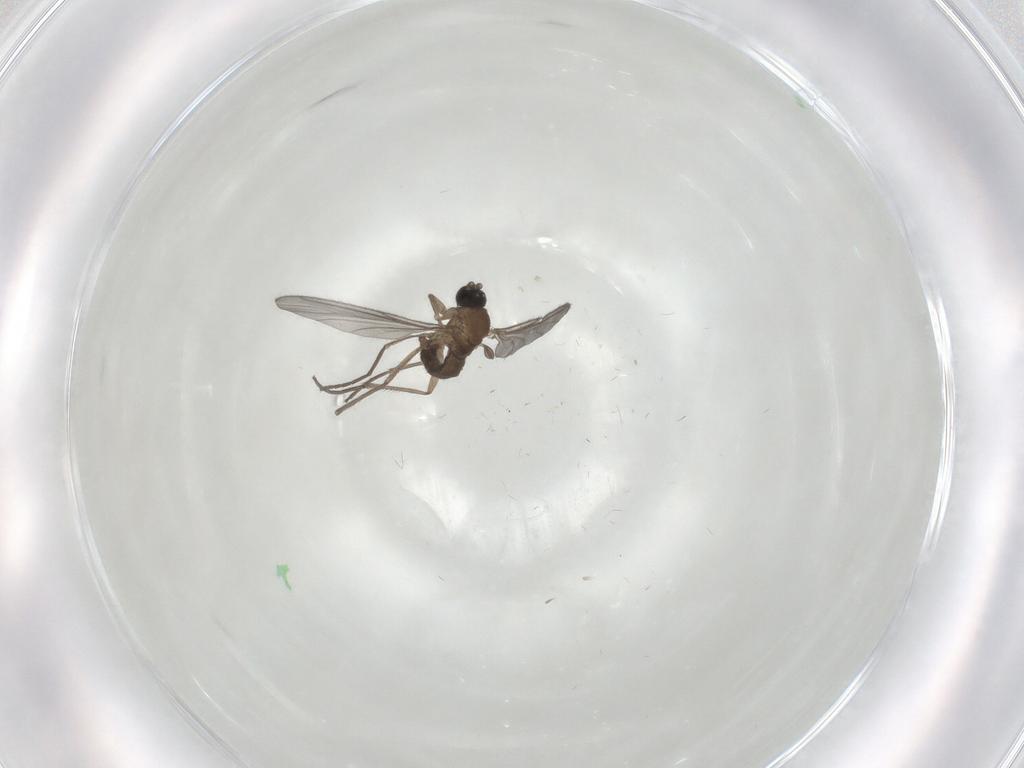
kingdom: Animalia
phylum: Arthropoda
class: Insecta
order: Diptera
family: Sciaridae
